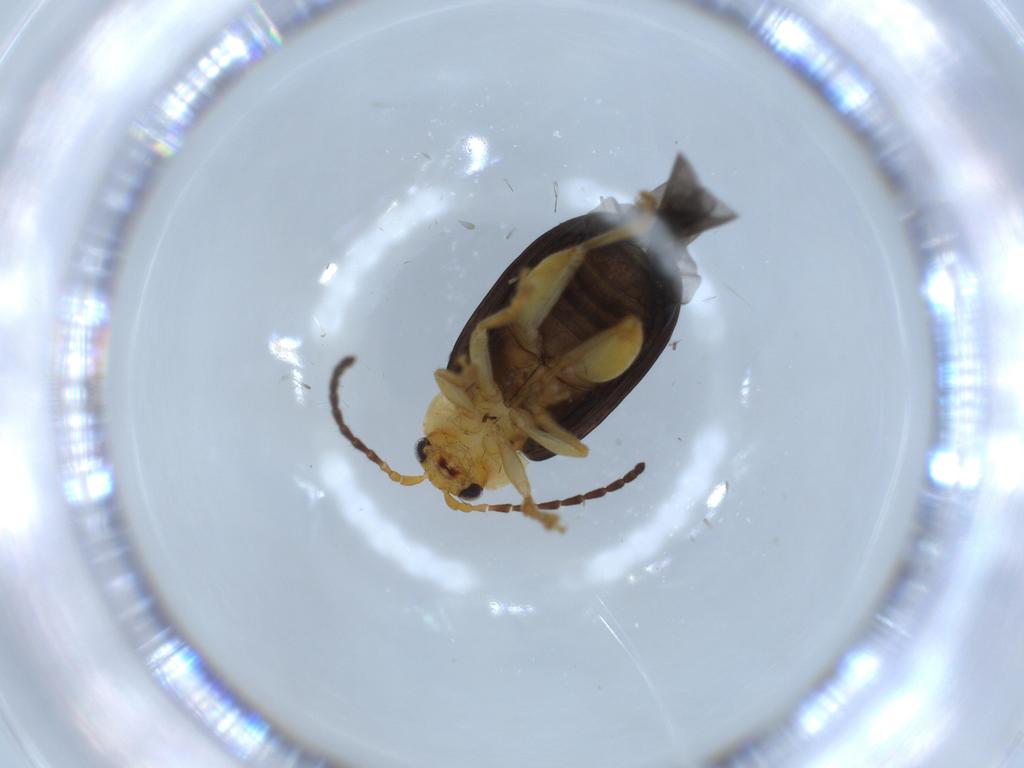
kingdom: Animalia
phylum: Arthropoda
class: Insecta
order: Coleoptera
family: Chrysomelidae
